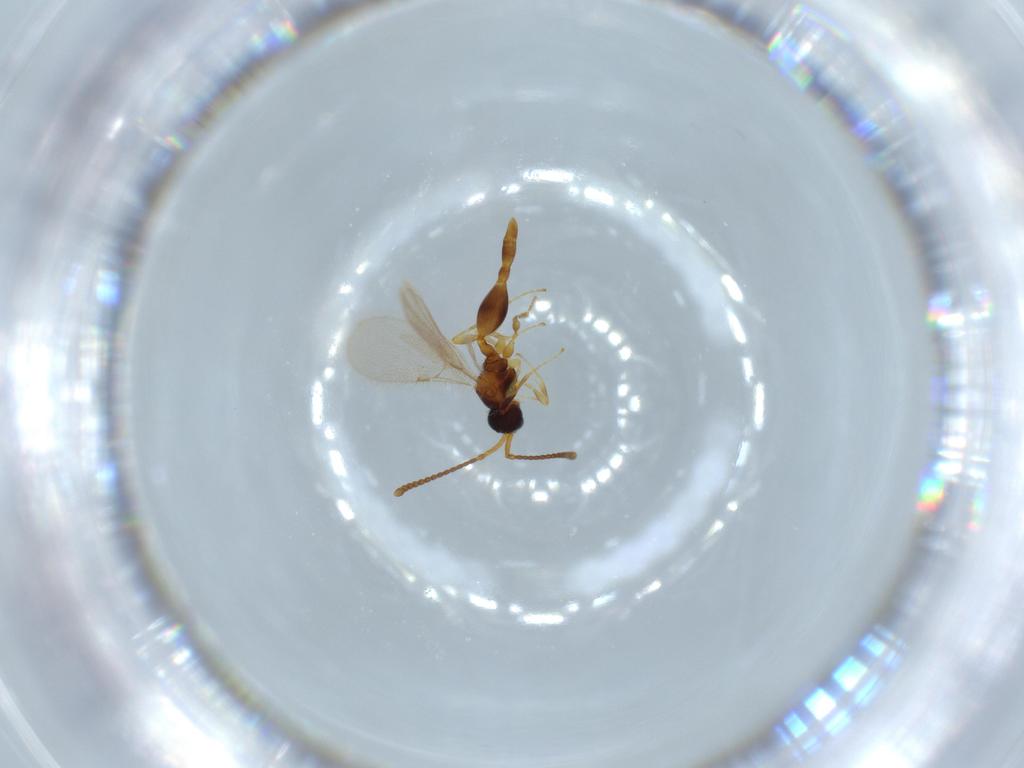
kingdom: Animalia
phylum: Arthropoda
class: Insecta
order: Hymenoptera
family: Diapriidae
